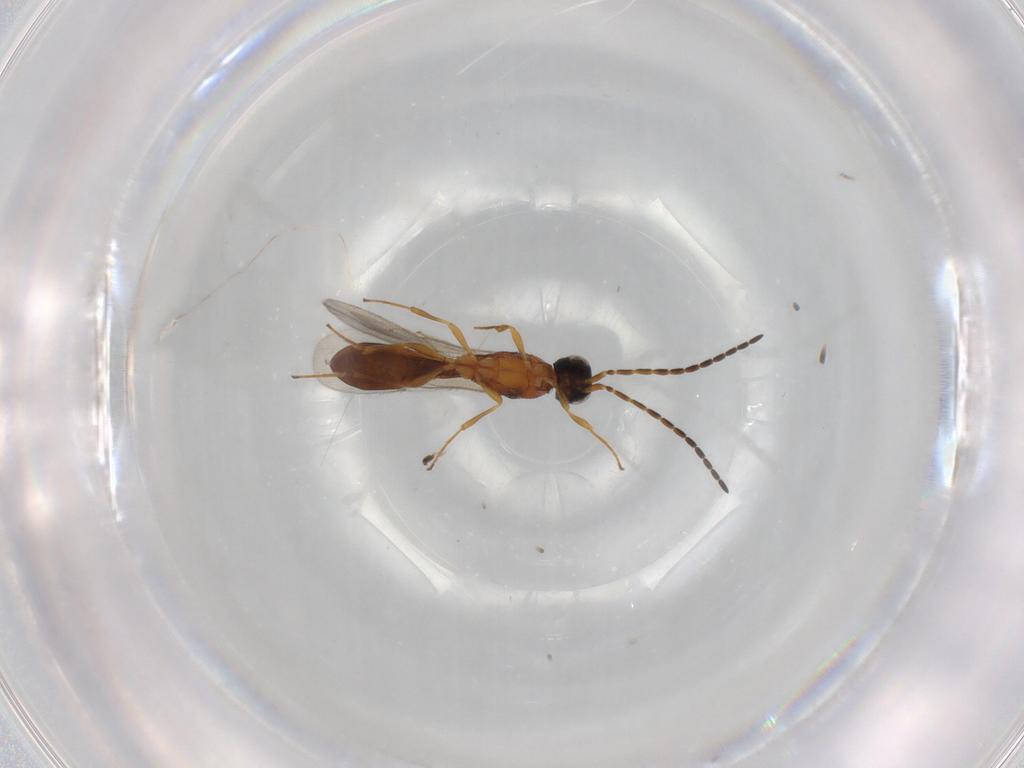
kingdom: Animalia
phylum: Arthropoda
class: Insecta
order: Hymenoptera
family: Scelionidae
